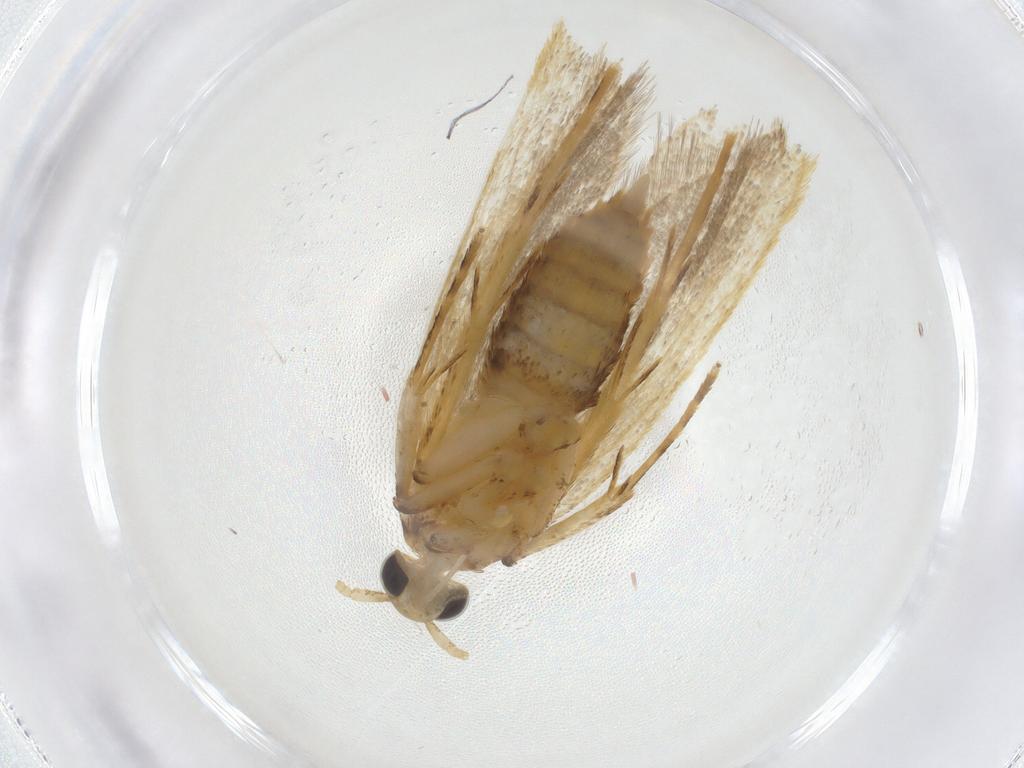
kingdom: Animalia
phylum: Arthropoda
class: Insecta
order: Lepidoptera
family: Lecithoceridae
